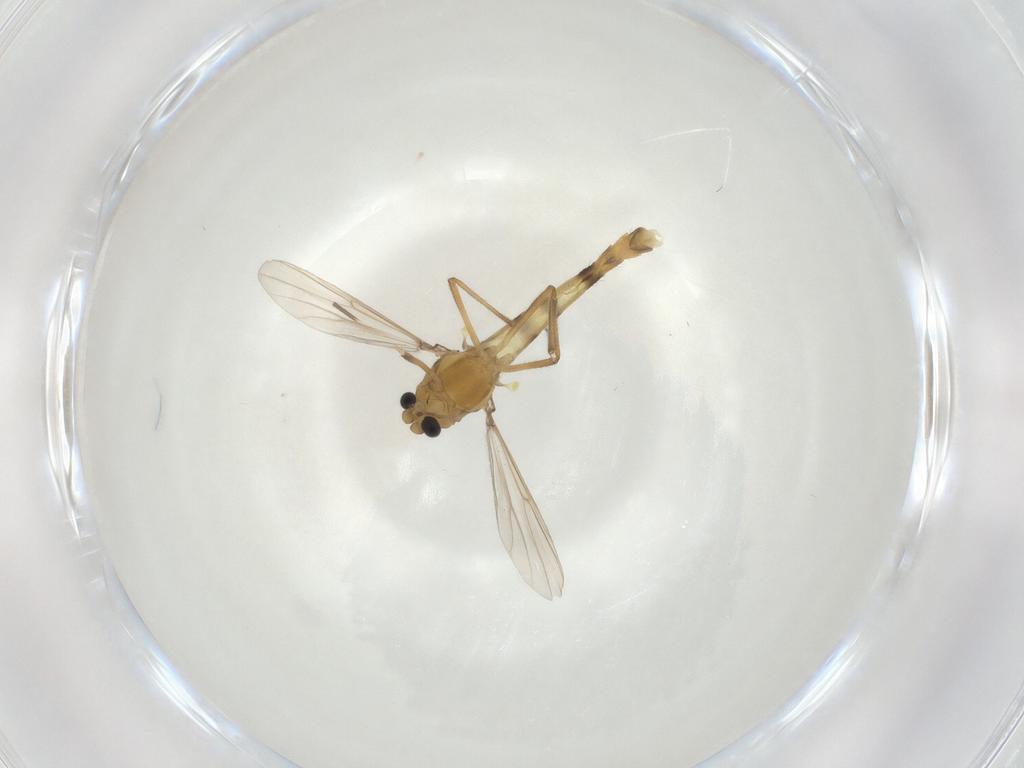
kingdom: Animalia
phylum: Arthropoda
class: Insecta
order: Diptera
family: Chironomidae
